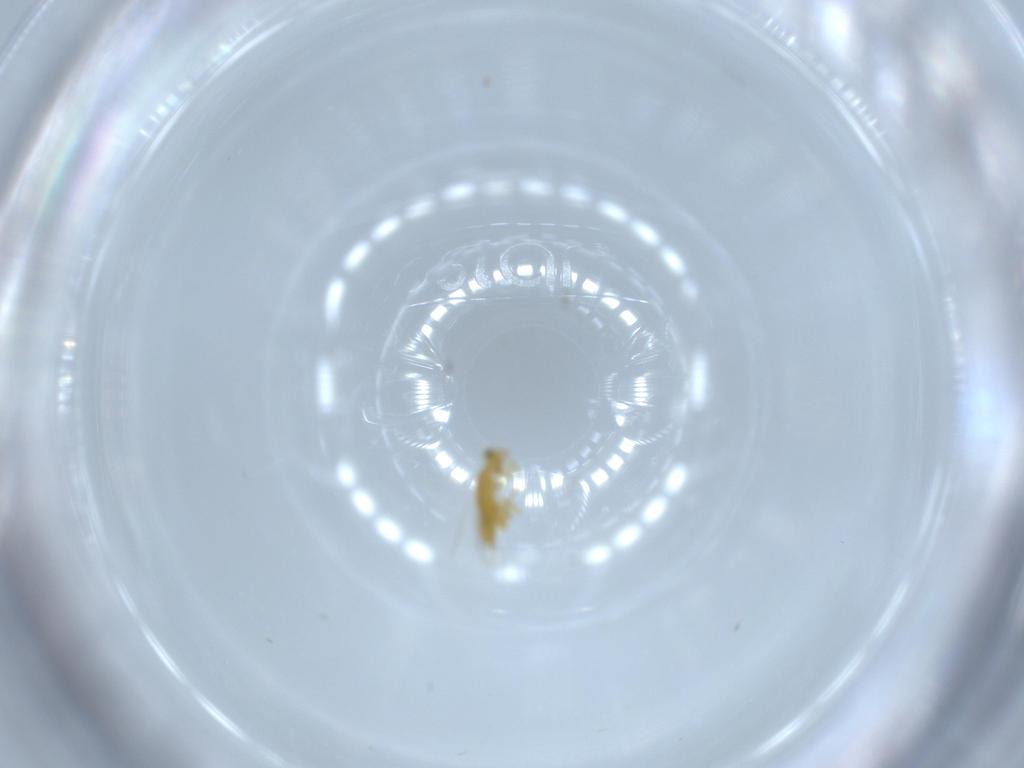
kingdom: Animalia
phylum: Arthropoda
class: Insecta
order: Hymenoptera
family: Aphelinidae
